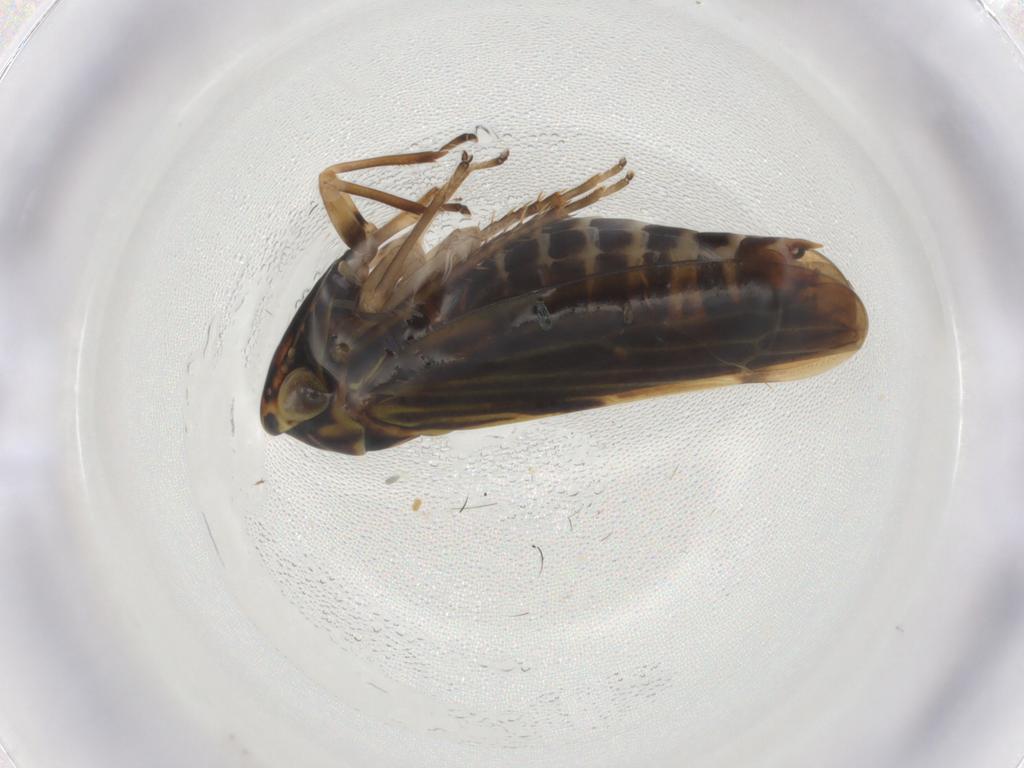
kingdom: Animalia
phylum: Arthropoda
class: Insecta
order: Hemiptera
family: Cicadellidae
